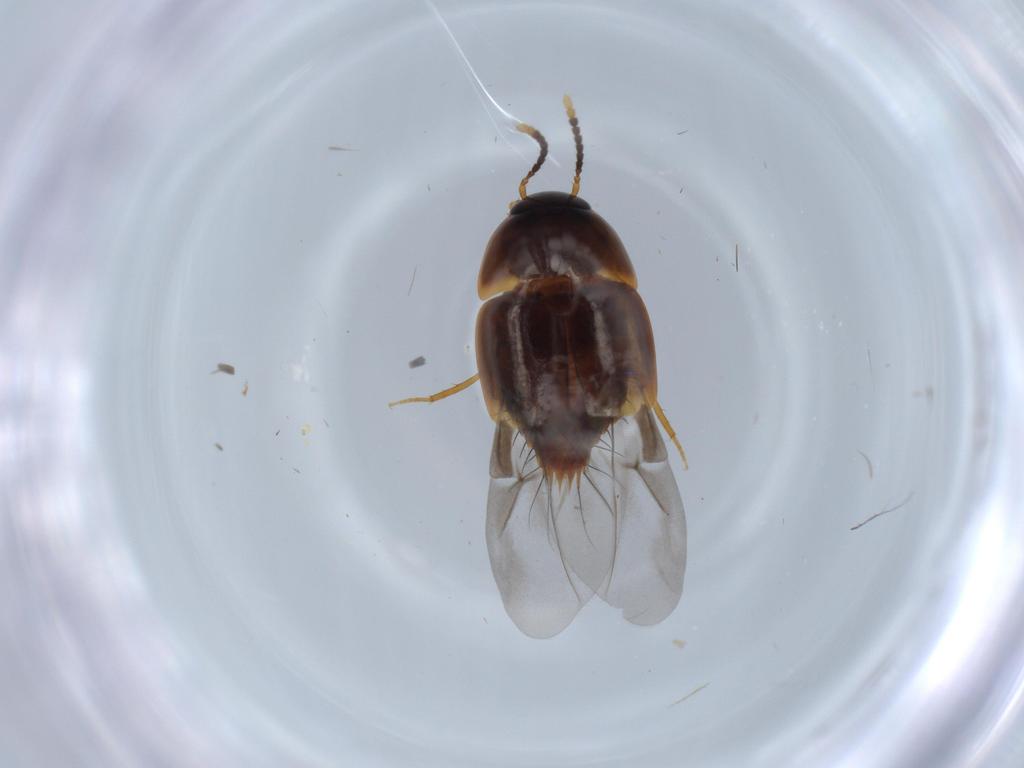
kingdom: Animalia
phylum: Arthropoda
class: Insecta
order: Coleoptera
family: Staphylinidae
